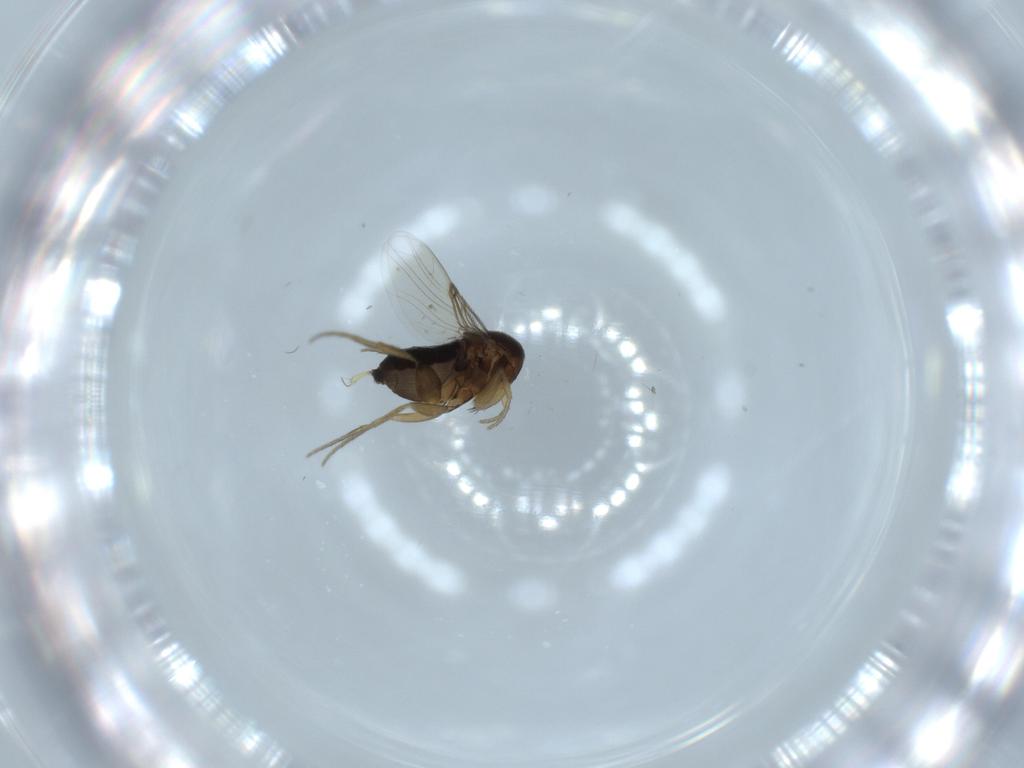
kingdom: Animalia
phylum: Arthropoda
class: Insecta
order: Diptera
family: Phoridae
